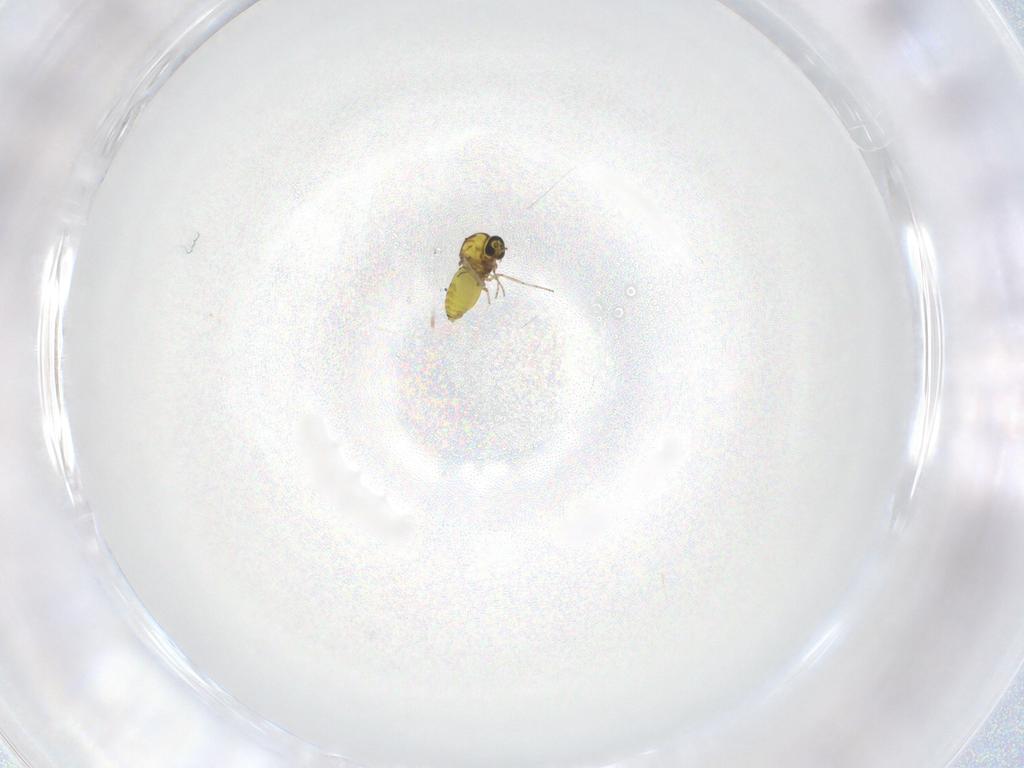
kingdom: Animalia
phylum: Arthropoda
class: Insecta
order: Diptera
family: Ceratopogonidae
